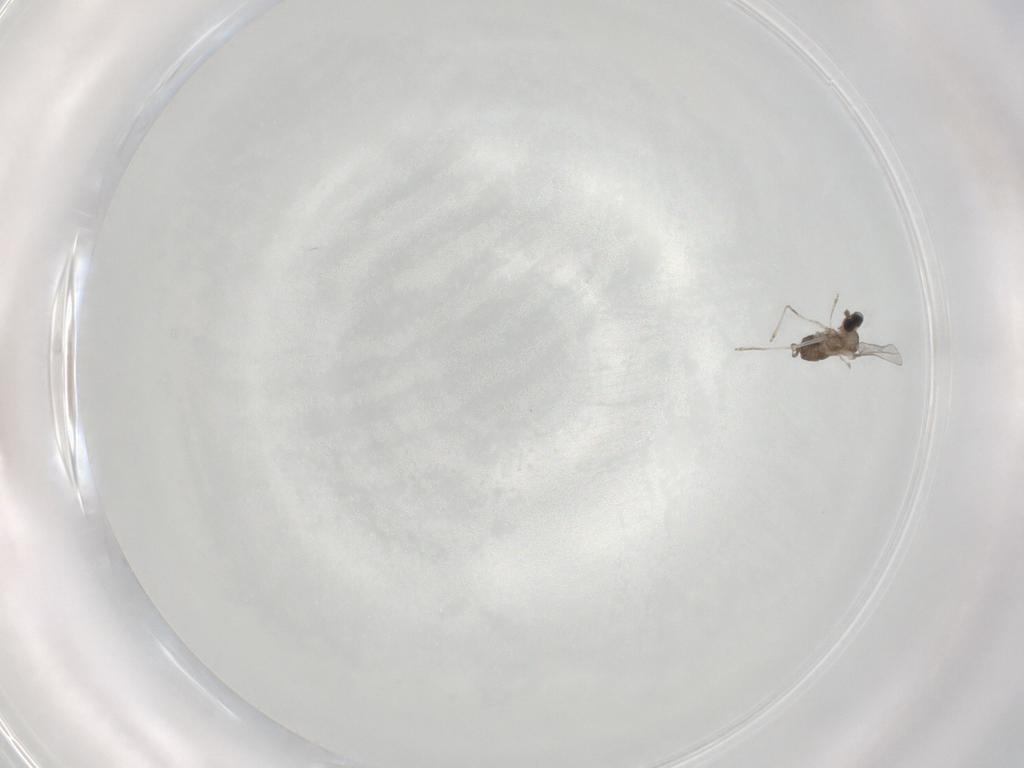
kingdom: Animalia
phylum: Arthropoda
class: Insecta
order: Diptera
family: Cecidomyiidae
